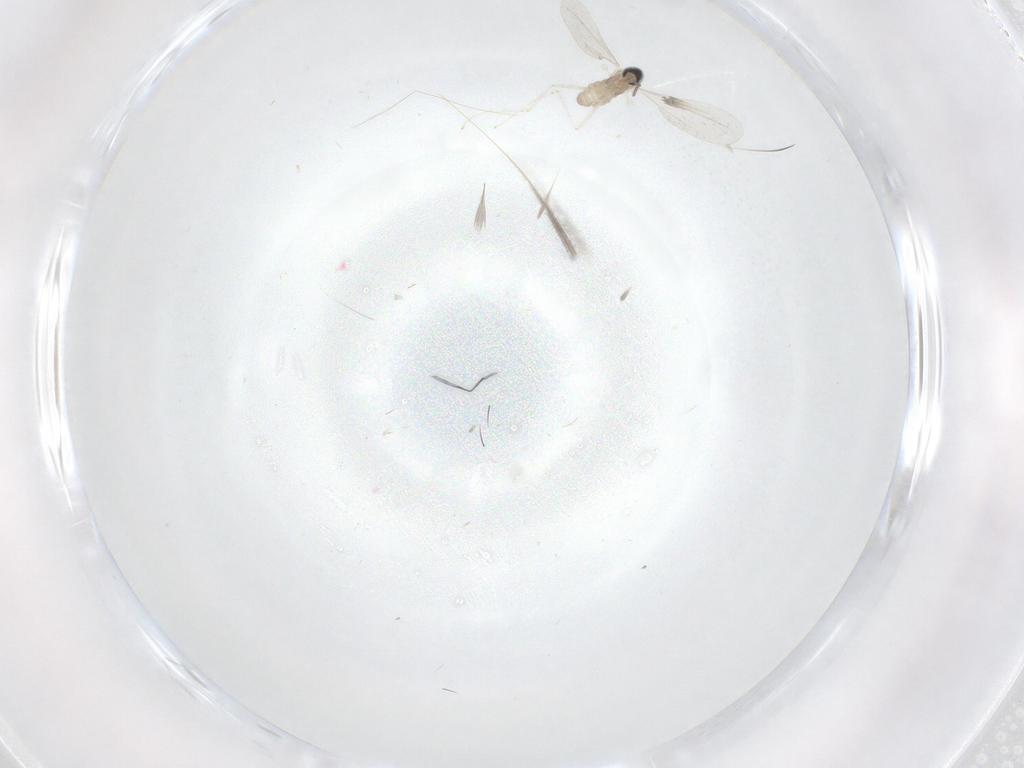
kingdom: Animalia
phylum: Arthropoda
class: Insecta
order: Diptera
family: Cecidomyiidae
